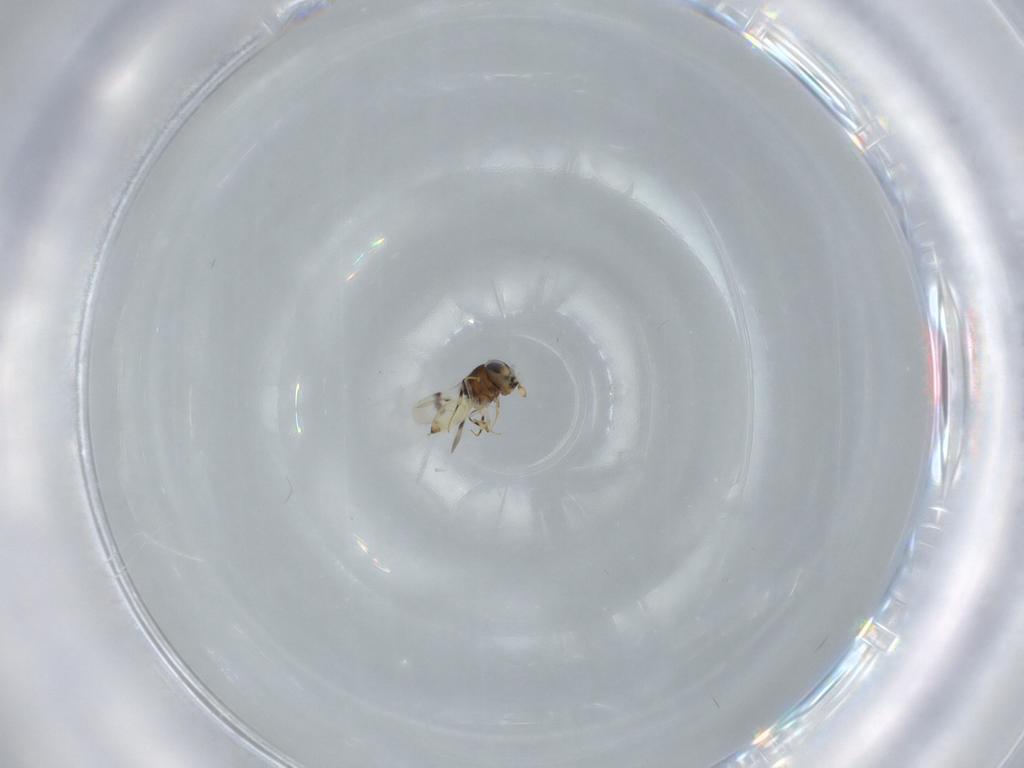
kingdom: Animalia
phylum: Arthropoda
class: Insecta
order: Hymenoptera
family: Scelionidae
